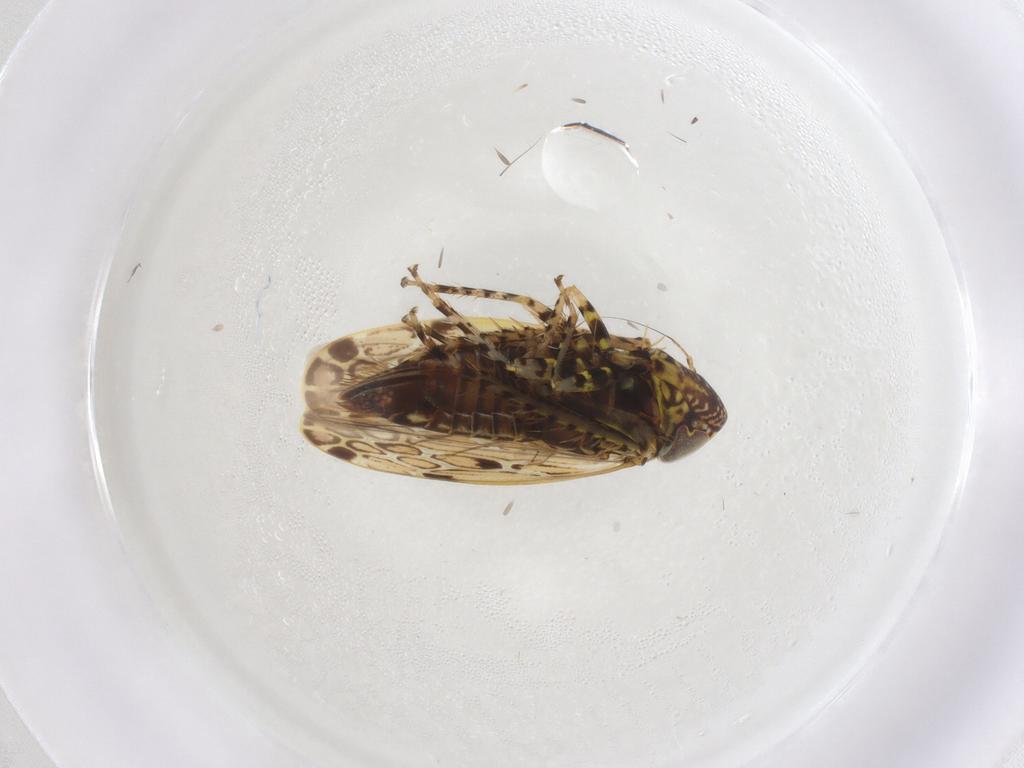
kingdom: Animalia
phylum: Arthropoda
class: Insecta
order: Hemiptera
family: Cicadellidae
